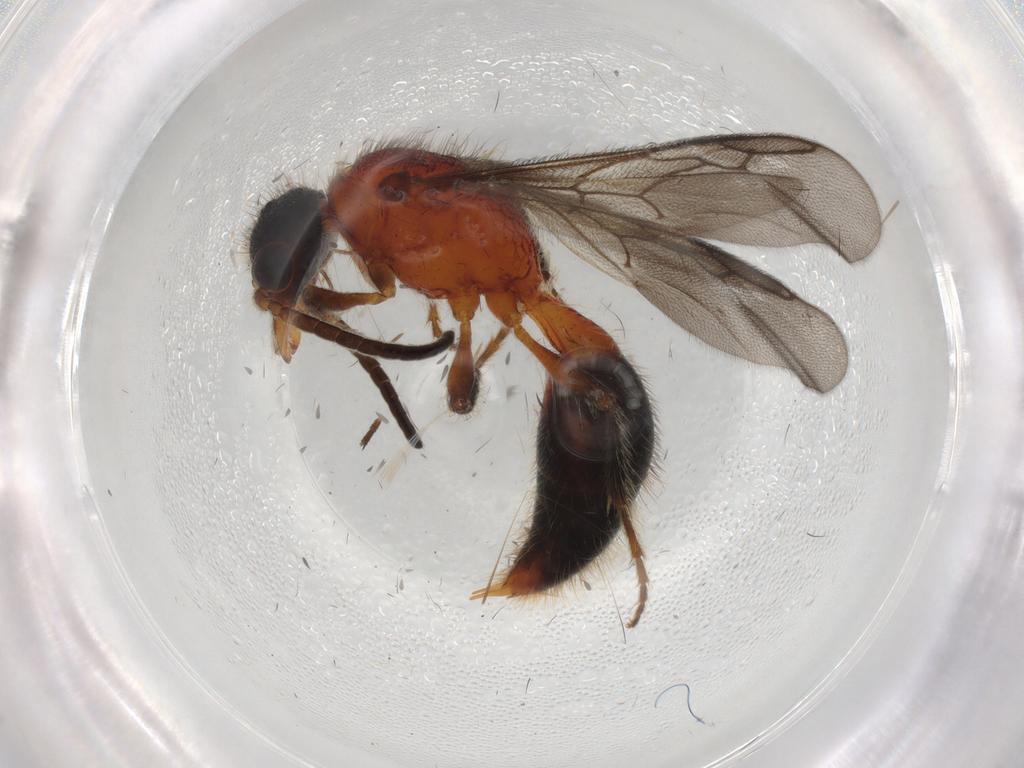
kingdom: Animalia
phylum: Arthropoda
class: Insecta
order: Hymenoptera
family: Mutillidae
